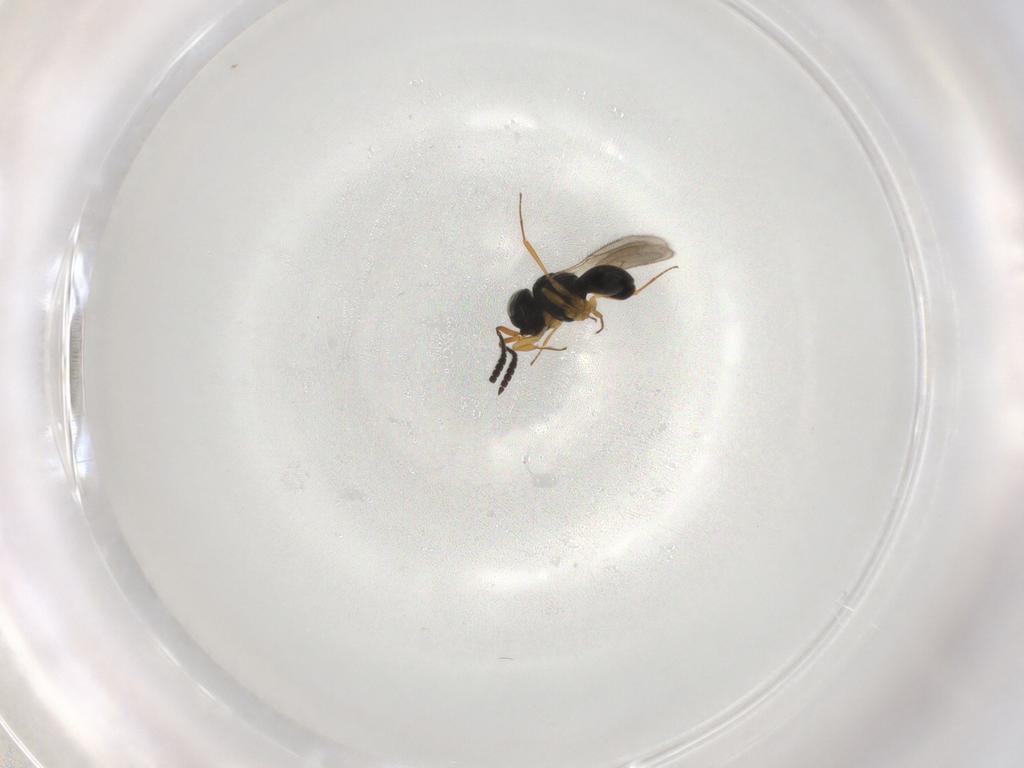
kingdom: Animalia
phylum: Arthropoda
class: Insecta
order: Hymenoptera
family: Scelionidae
